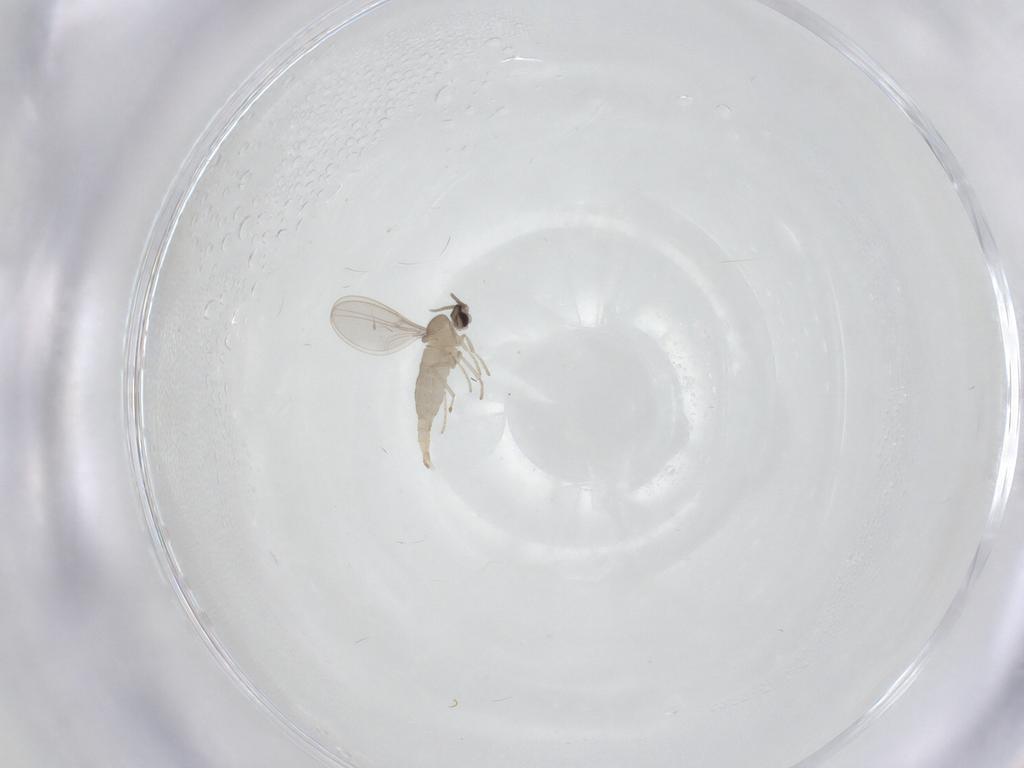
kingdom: Animalia
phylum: Arthropoda
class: Insecta
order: Diptera
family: Cecidomyiidae
